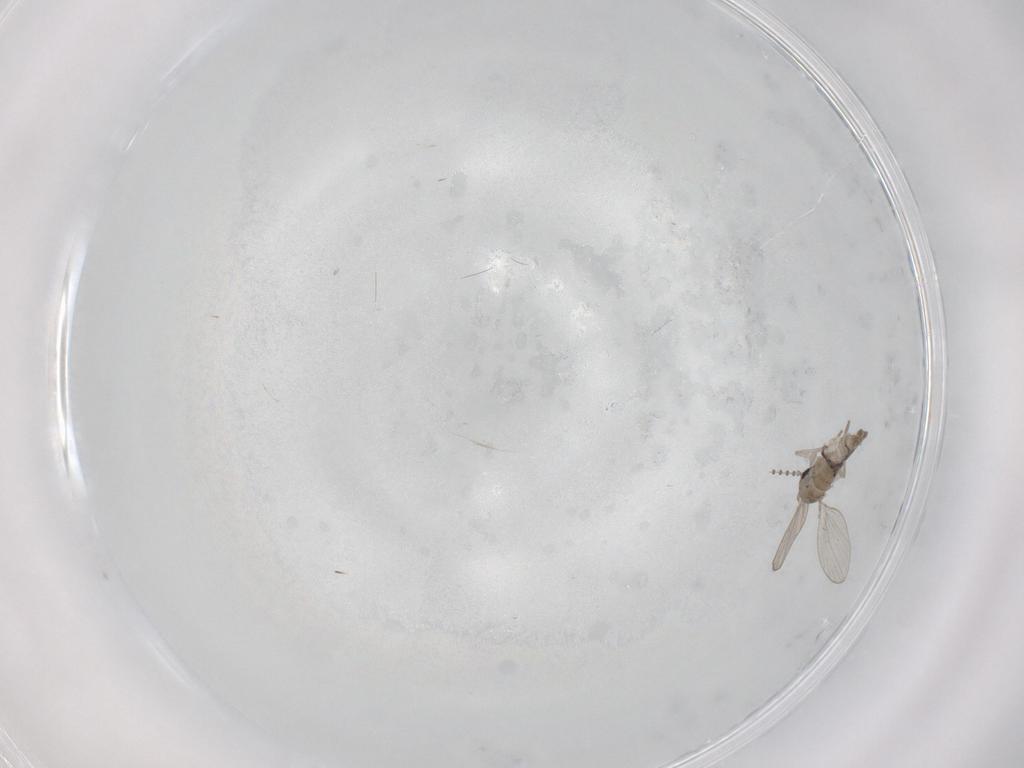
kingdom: Animalia
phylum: Arthropoda
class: Insecta
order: Diptera
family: Psychodidae
